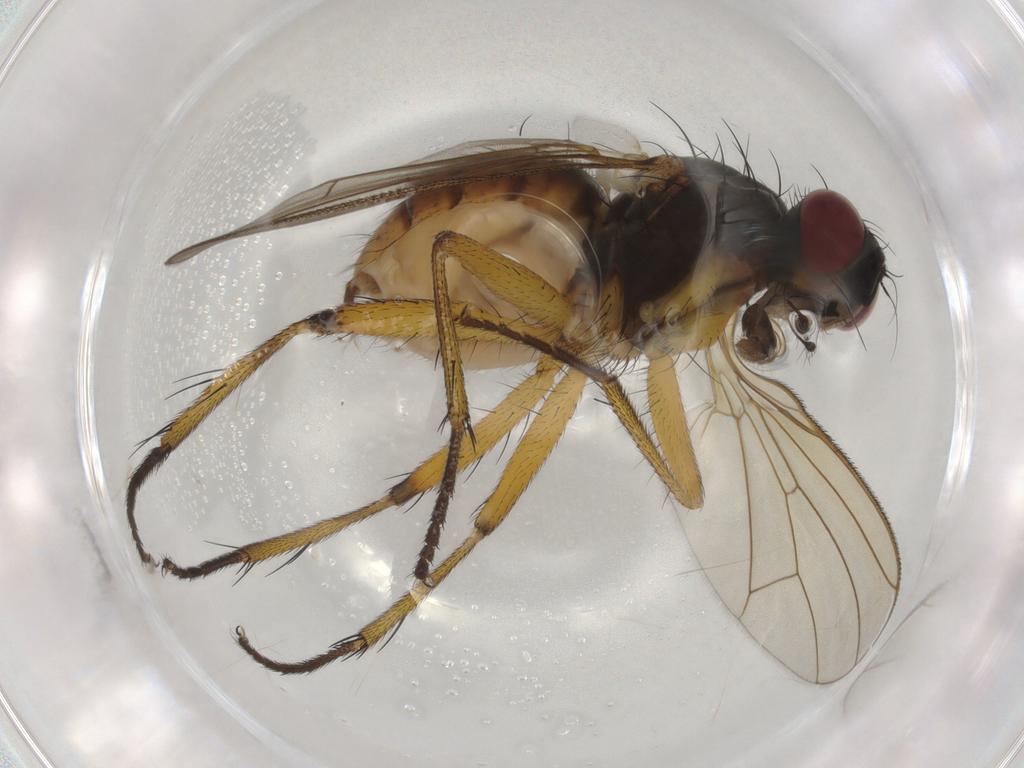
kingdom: Animalia
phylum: Arthropoda
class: Insecta
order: Diptera
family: Muscidae
